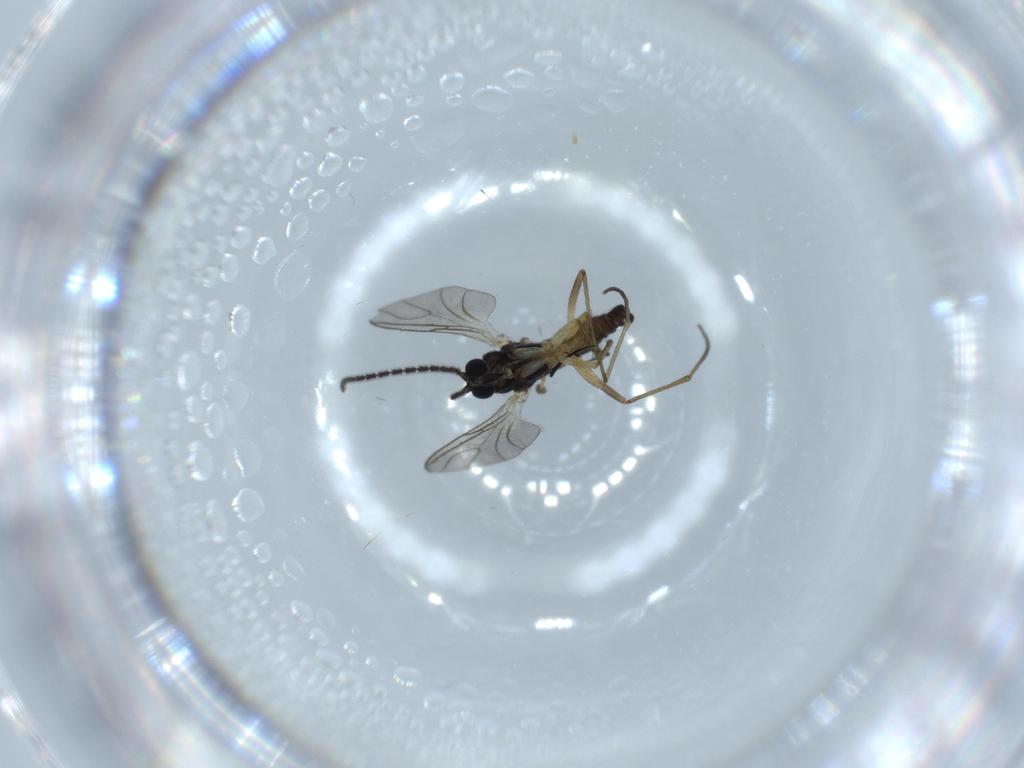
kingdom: Animalia
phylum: Arthropoda
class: Insecta
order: Diptera
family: Sciaridae
